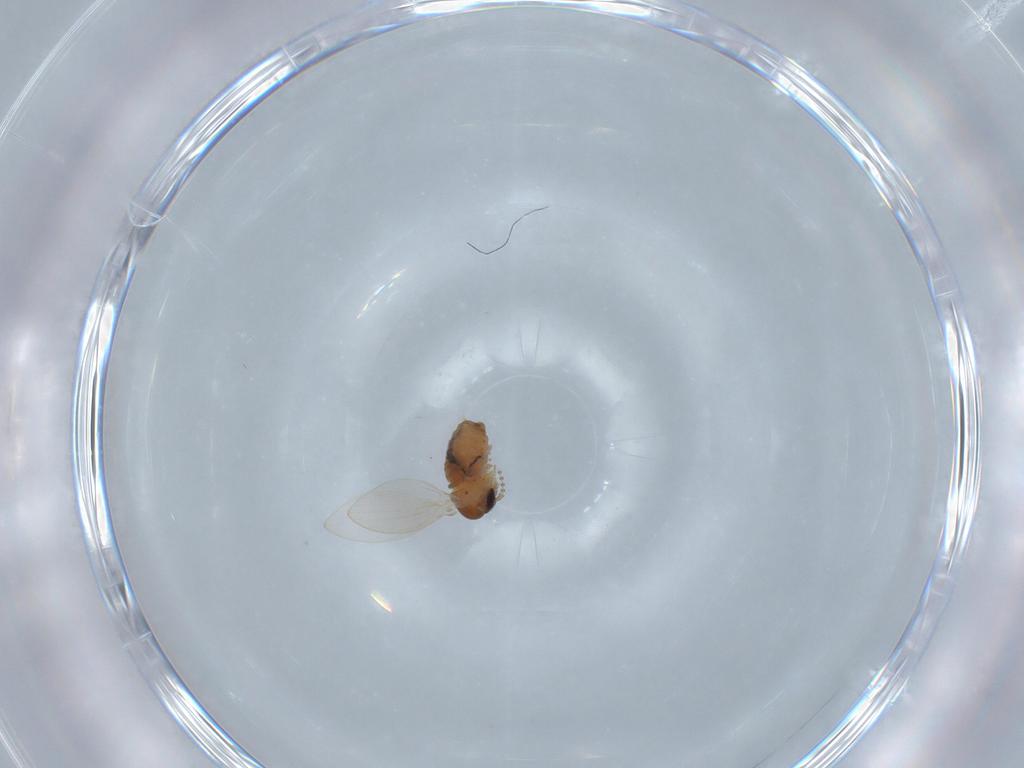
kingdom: Animalia
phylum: Arthropoda
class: Insecta
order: Diptera
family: Psychodidae
